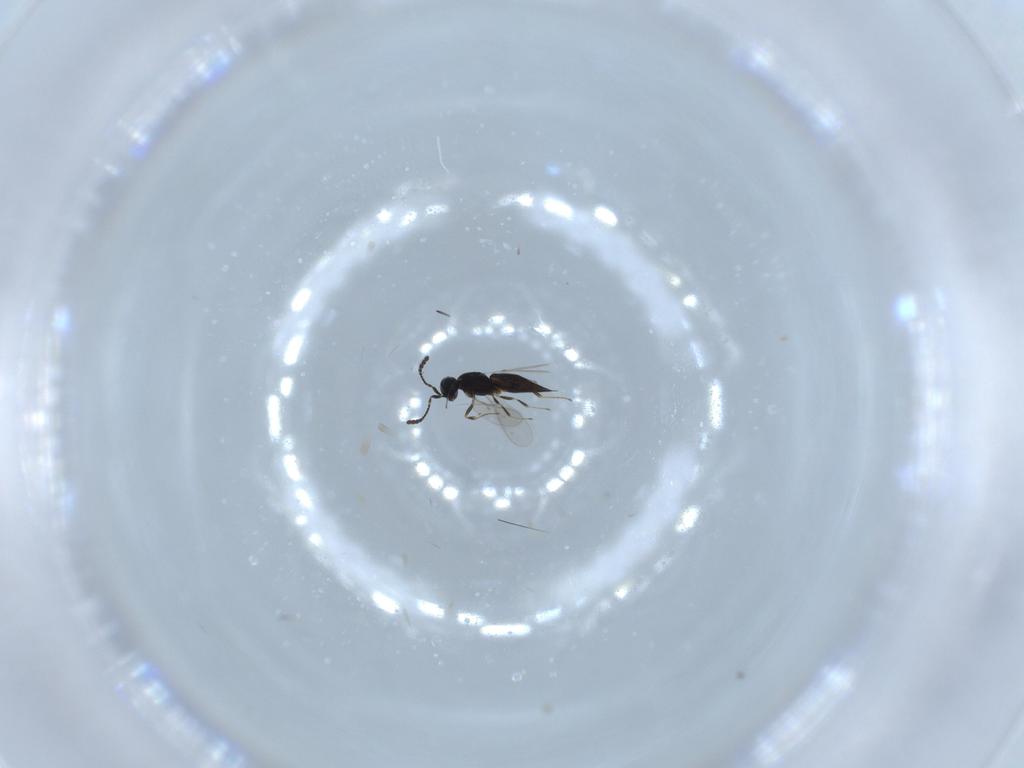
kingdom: Animalia
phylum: Arthropoda
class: Insecta
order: Hymenoptera
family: Scelionidae
